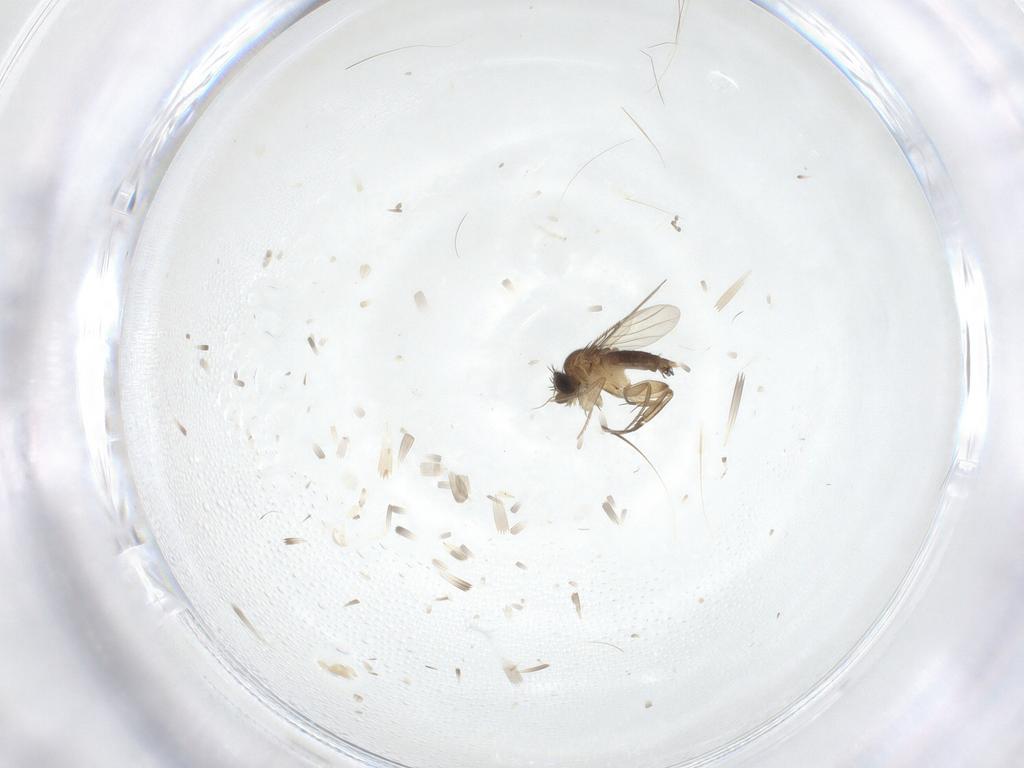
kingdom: Animalia
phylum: Arthropoda
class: Insecta
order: Diptera
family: Phoridae
